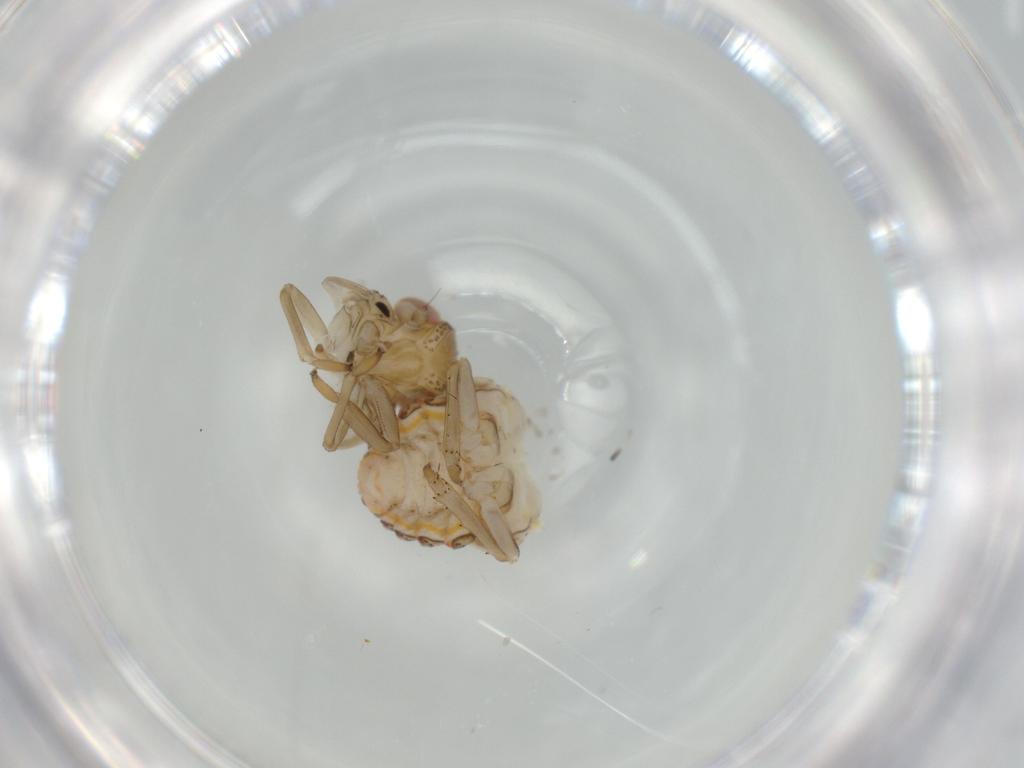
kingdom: Animalia
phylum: Arthropoda
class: Insecta
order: Hemiptera
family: Issidae
